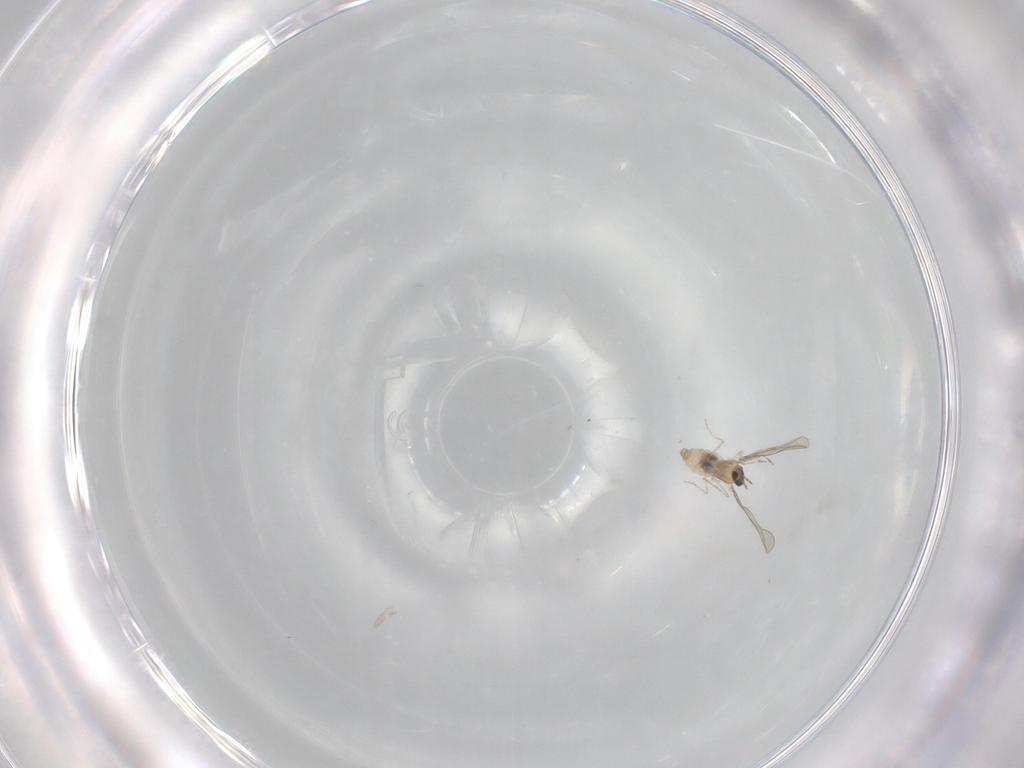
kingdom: Animalia
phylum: Arthropoda
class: Insecta
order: Diptera
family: Cecidomyiidae
